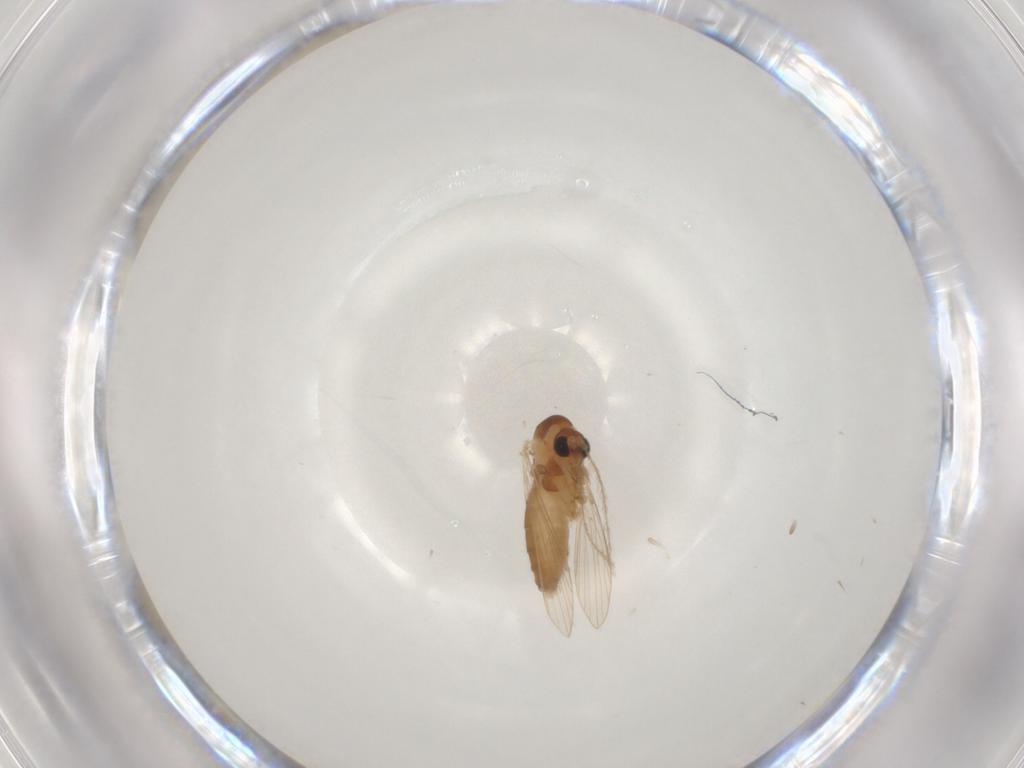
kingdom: Animalia
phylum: Arthropoda
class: Insecta
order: Diptera
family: Psychodidae
